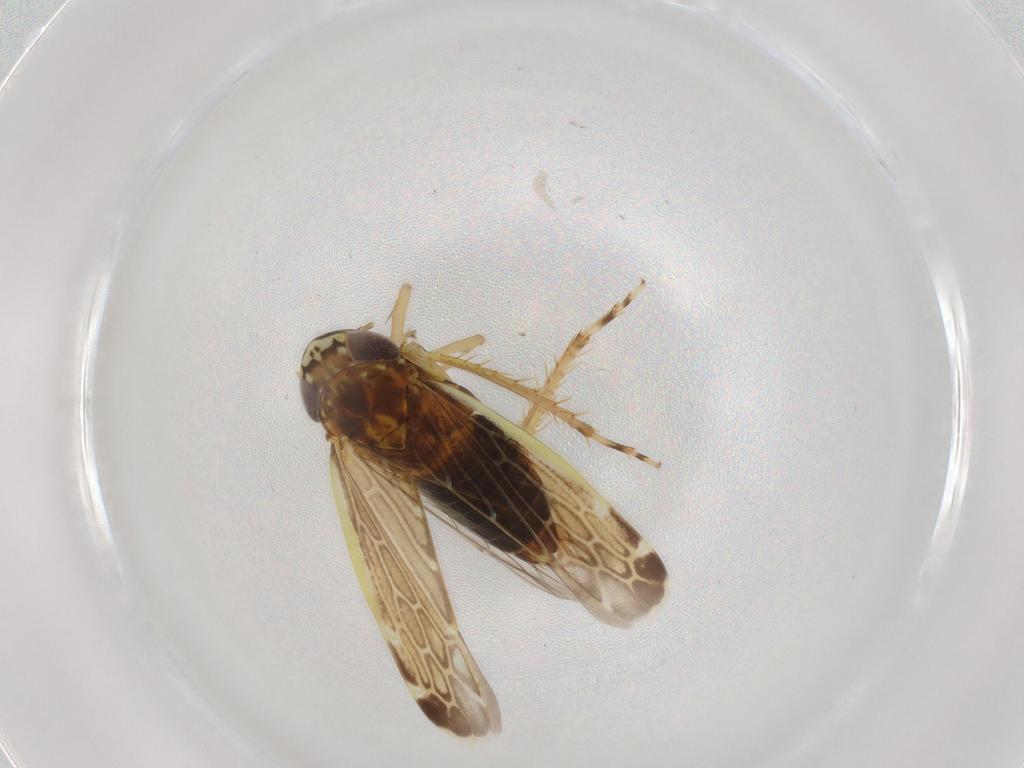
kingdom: Animalia
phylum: Arthropoda
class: Insecta
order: Hemiptera
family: Cicadellidae
